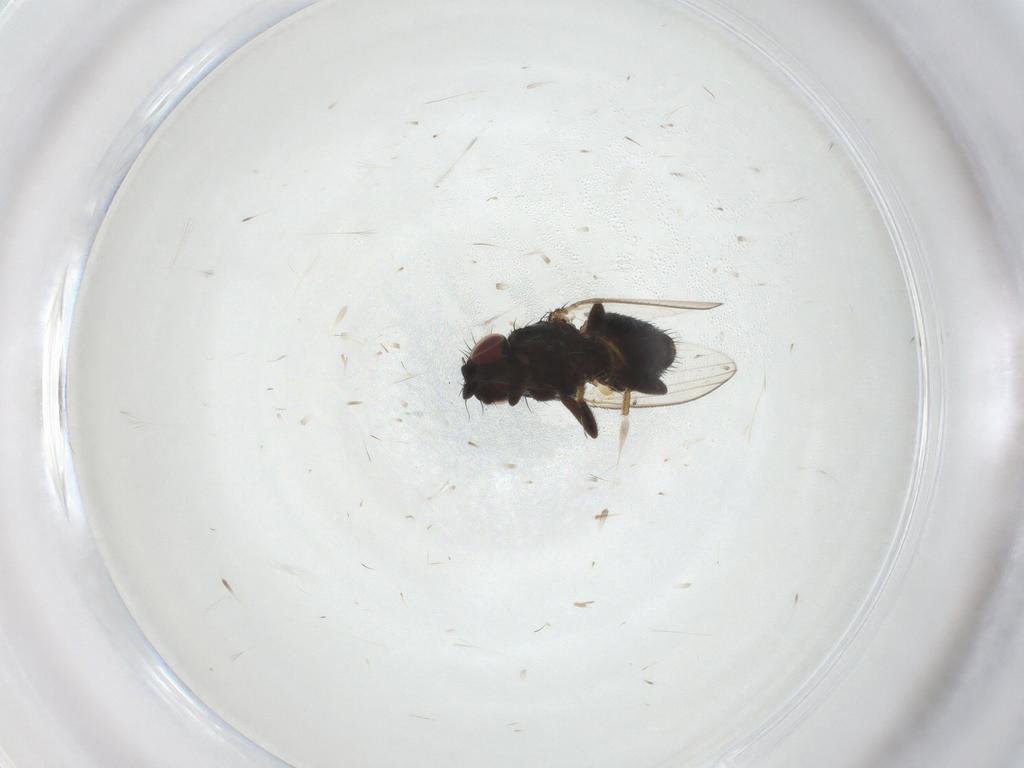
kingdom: Animalia
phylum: Arthropoda
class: Insecta
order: Diptera
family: Milichiidae
